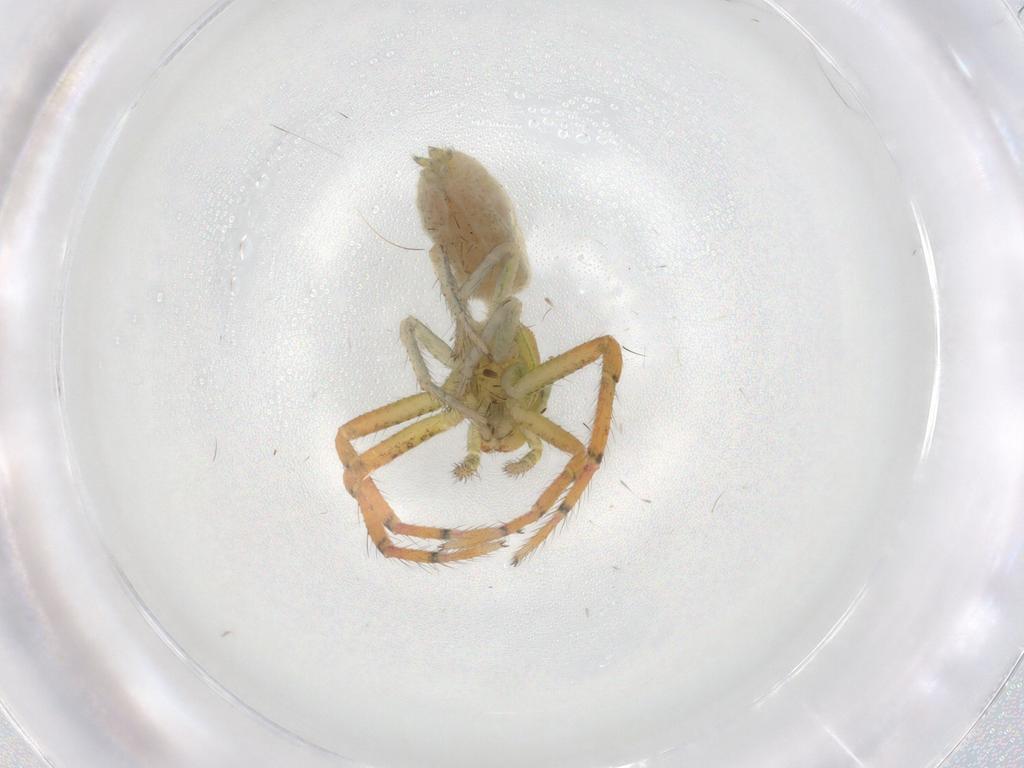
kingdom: Animalia
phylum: Arthropoda
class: Arachnida
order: Araneae
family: Thomisidae
